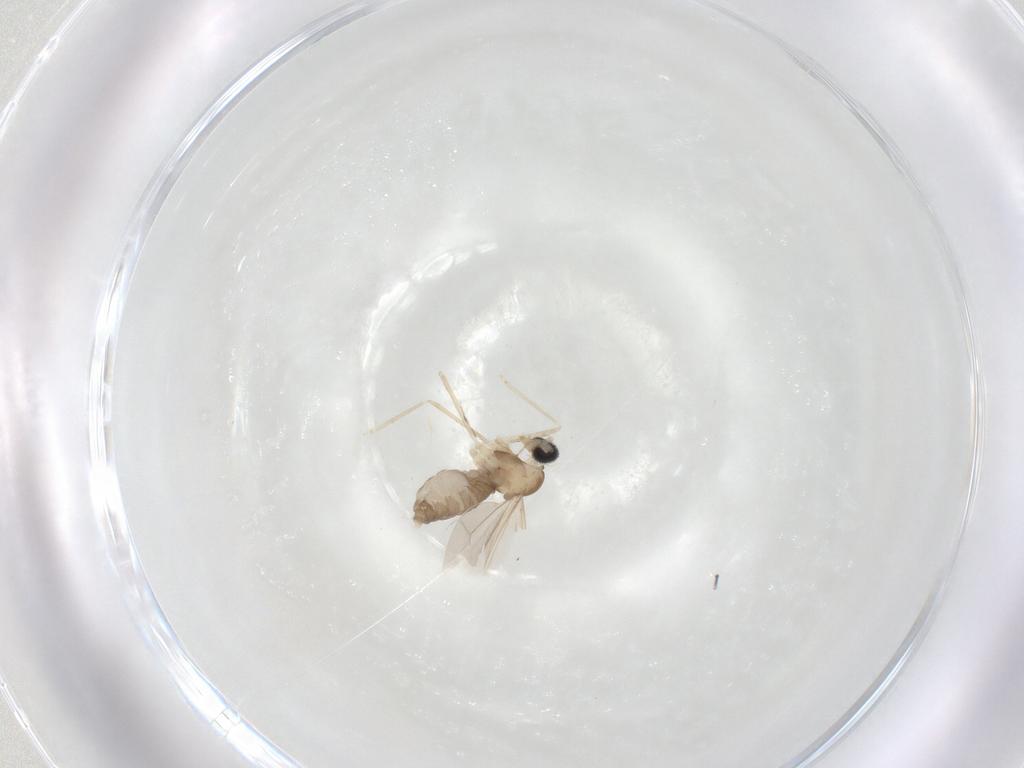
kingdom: Animalia
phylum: Arthropoda
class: Insecta
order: Diptera
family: Cecidomyiidae
